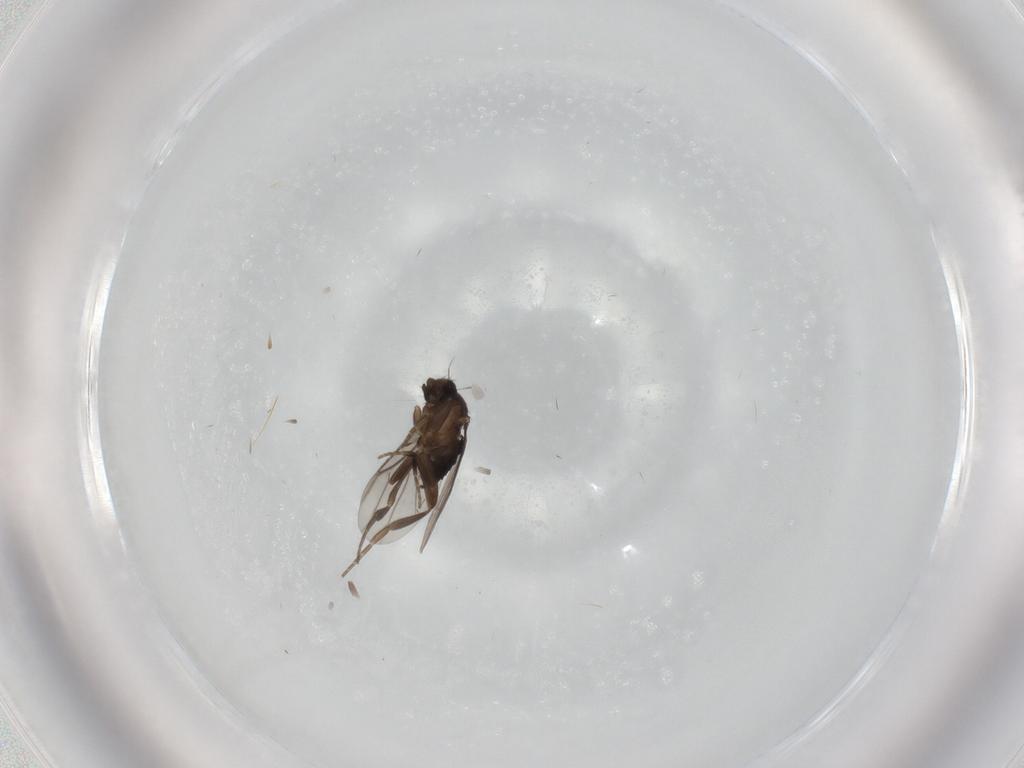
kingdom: Animalia
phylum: Arthropoda
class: Insecta
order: Diptera
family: Phoridae
